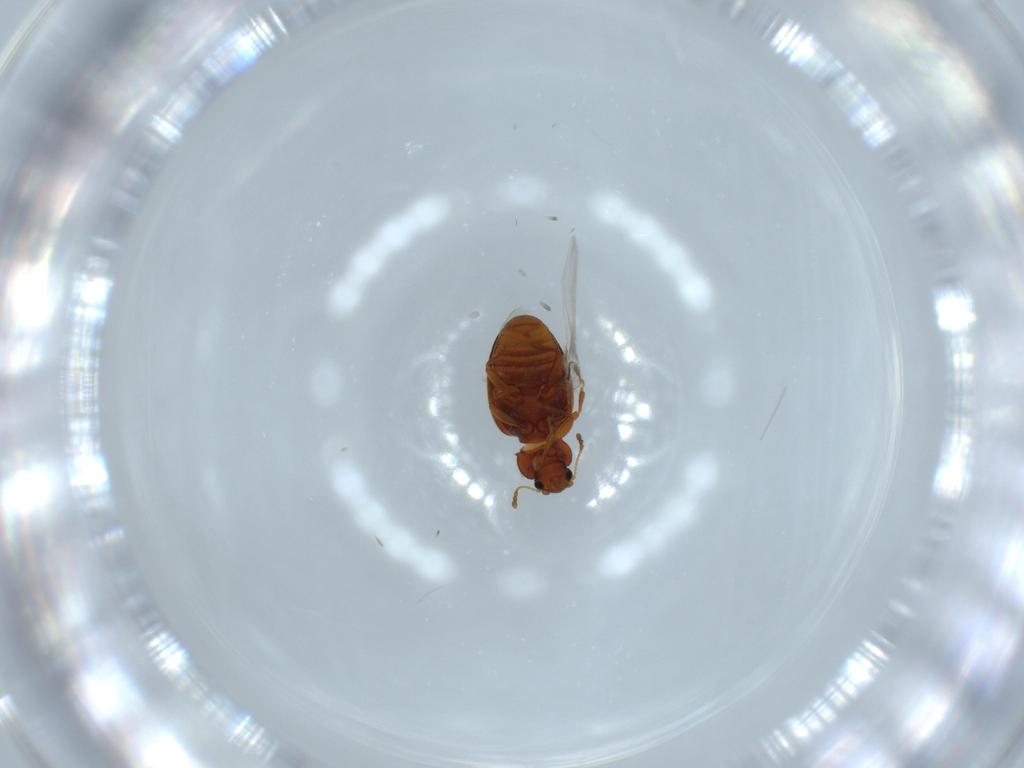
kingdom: Animalia
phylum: Arthropoda
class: Insecta
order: Coleoptera
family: Latridiidae
